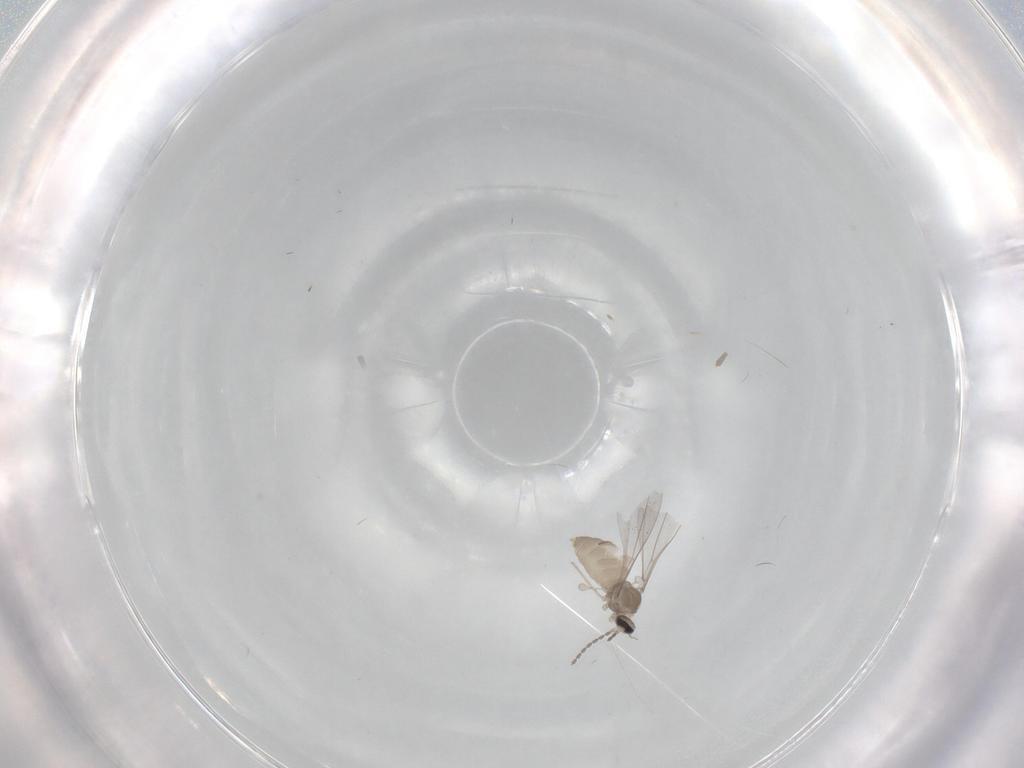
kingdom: Animalia
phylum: Arthropoda
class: Insecta
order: Diptera
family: Cecidomyiidae
